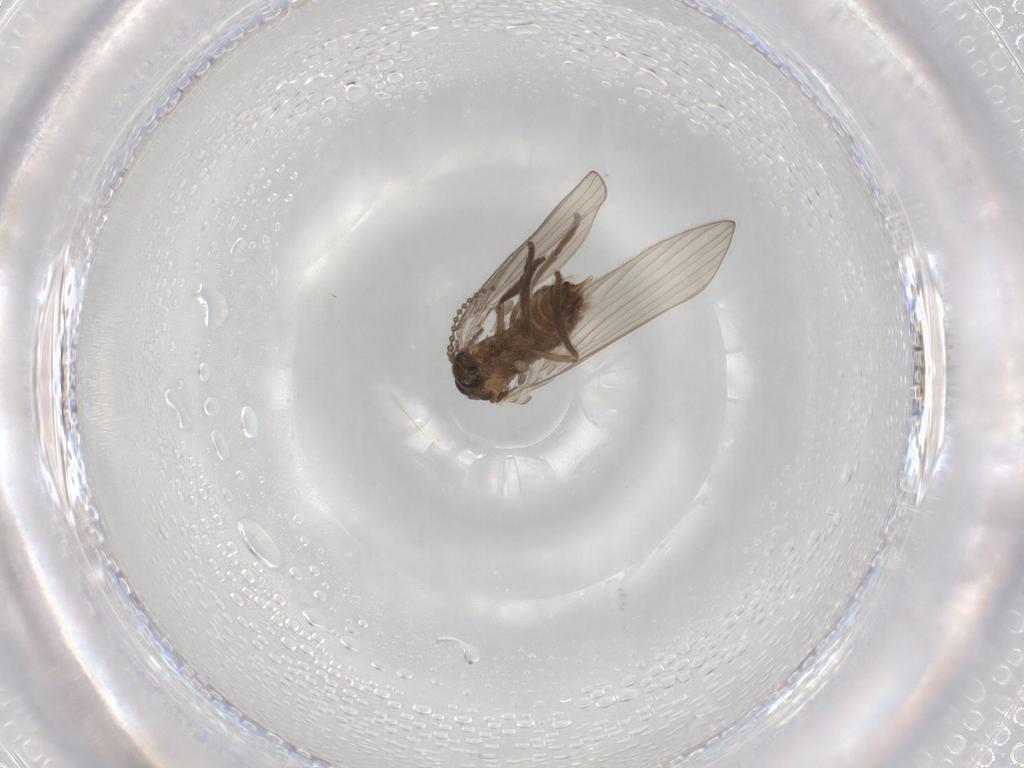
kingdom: Animalia
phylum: Arthropoda
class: Insecta
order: Diptera
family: Psychodidae
